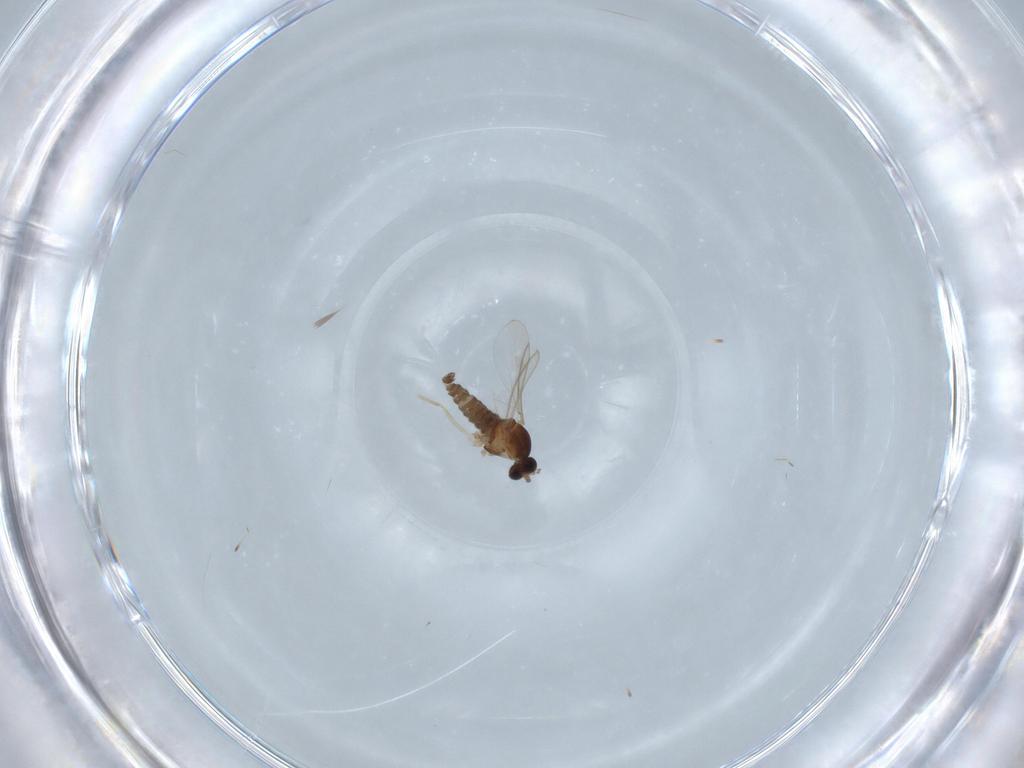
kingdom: Animalia
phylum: Arthropoda
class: Insecta
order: Diptera
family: Cecidomyiidae
